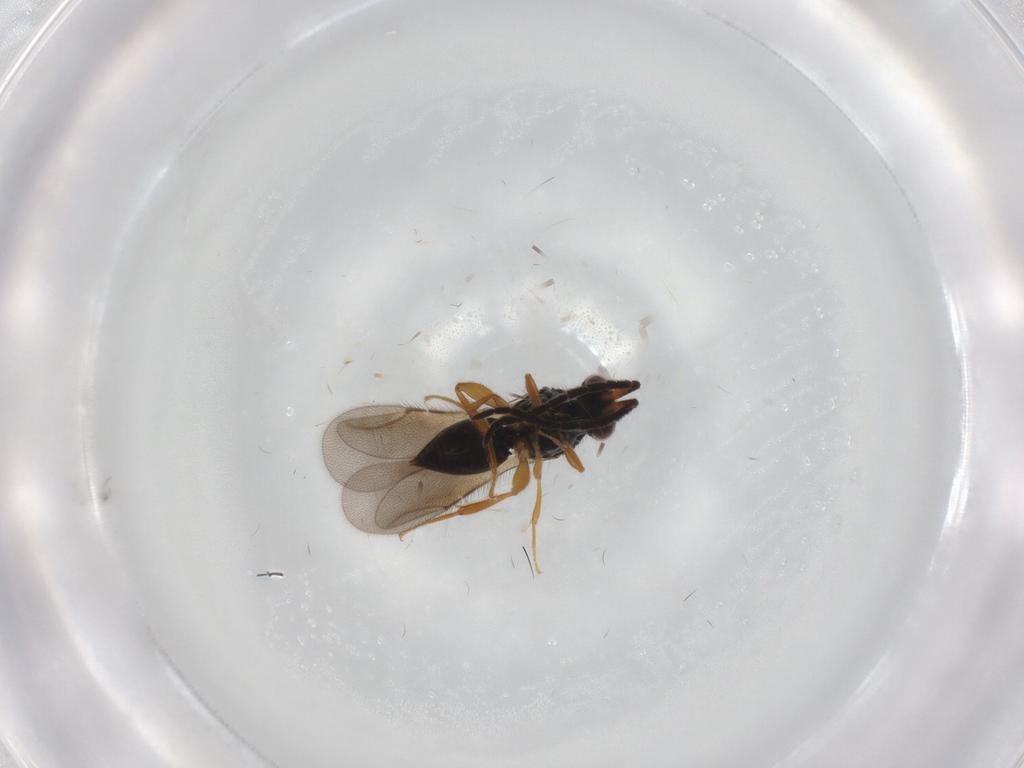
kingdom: Animalia
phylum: Arthropoda
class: Insecta
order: Hymenoptera
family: Ceraphronidae
